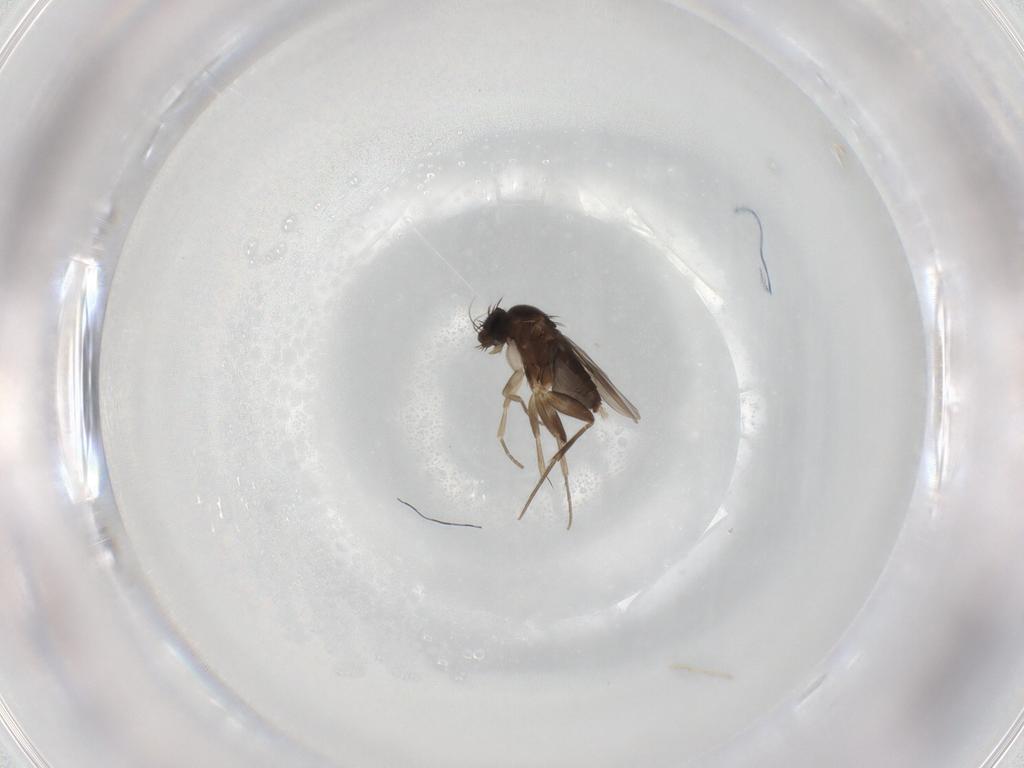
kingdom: Animalia
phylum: Arthropoda
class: Insecta
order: Diptera
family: Phoridae
